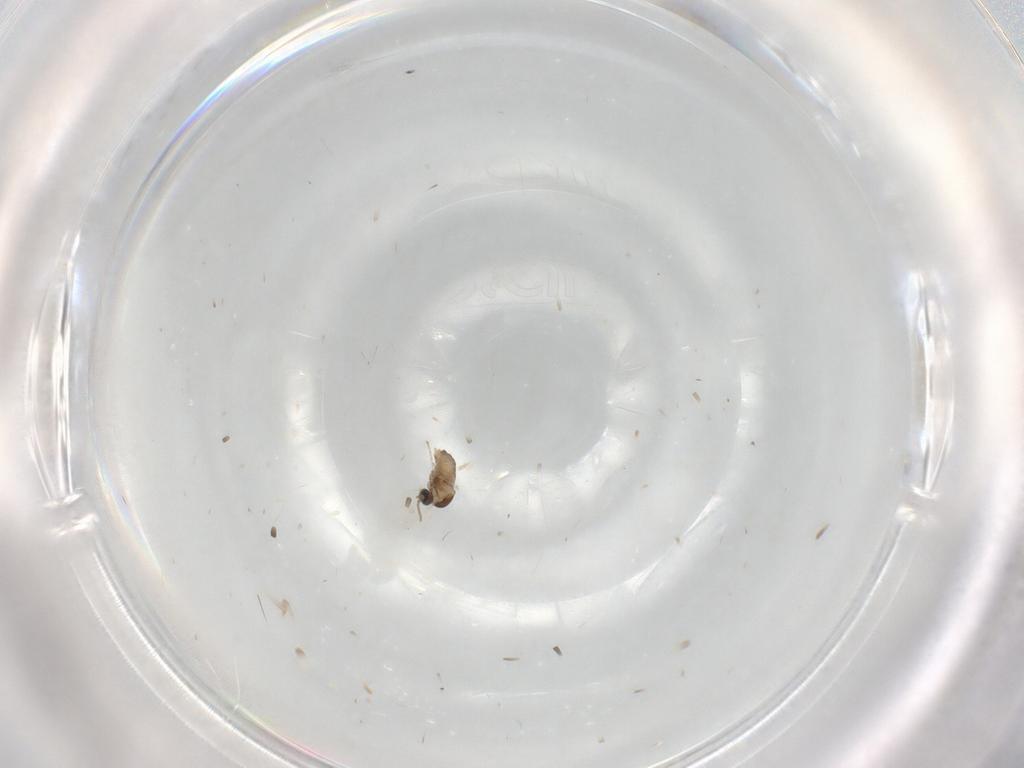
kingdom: Animalia
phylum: Arthropoda
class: Insecta
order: Diptera
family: Cecidomyiidae
